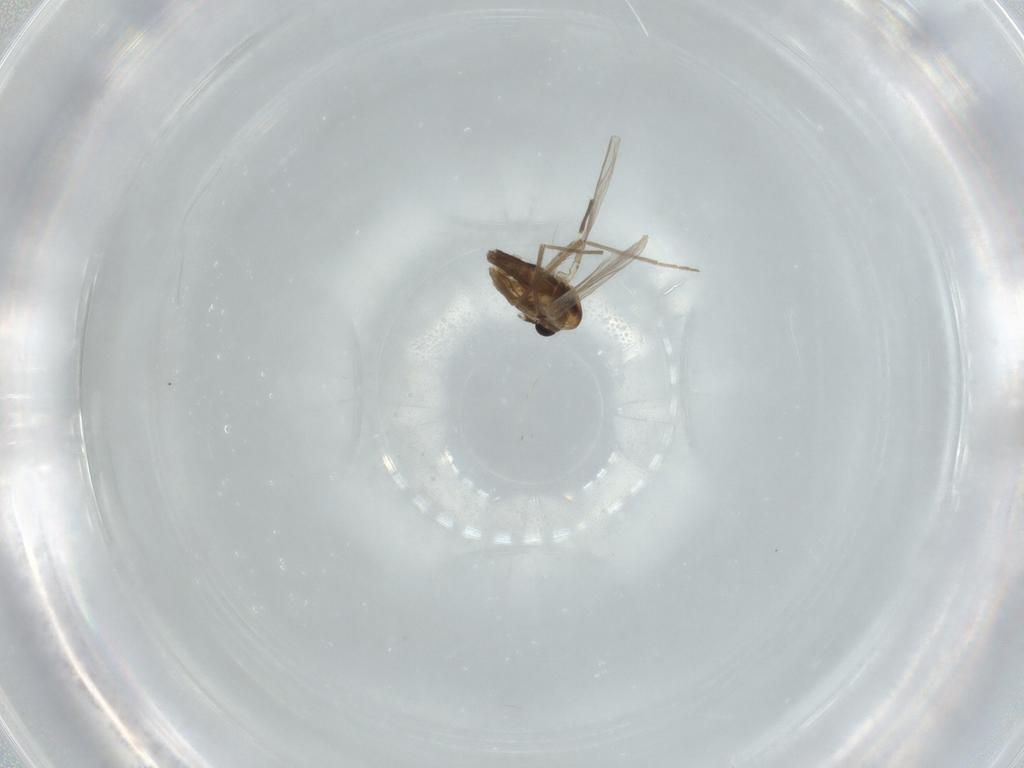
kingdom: Animalia
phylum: Arthropoda
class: Insecta
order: Diptera
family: Chironomidae
